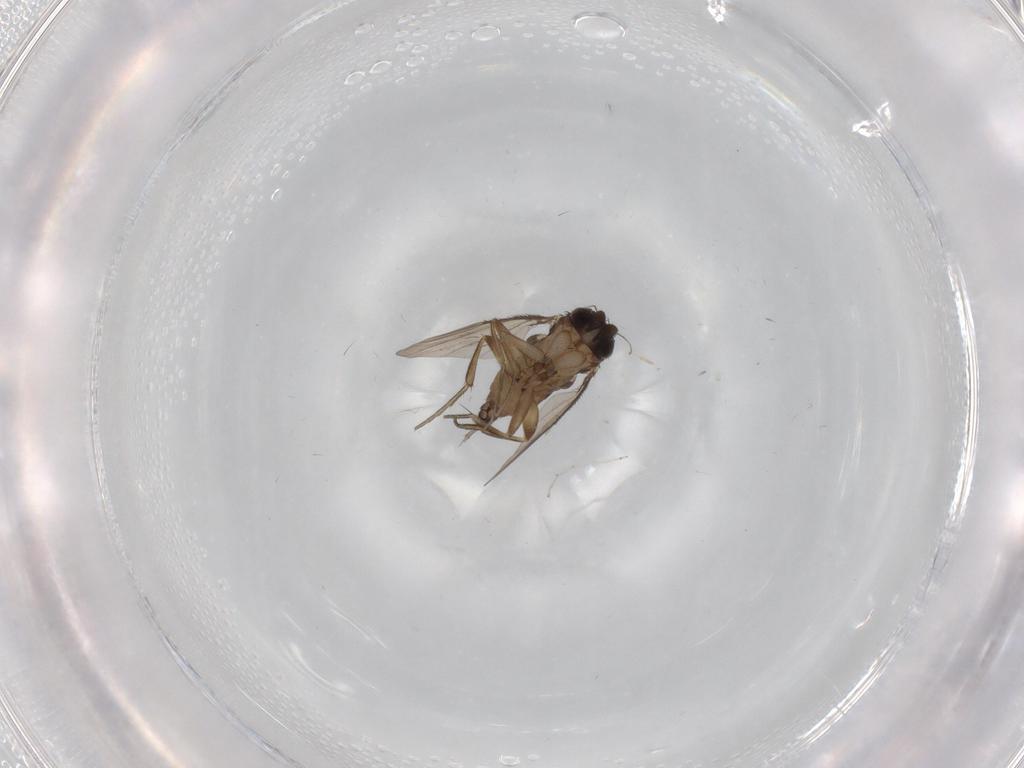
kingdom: Animalia
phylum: Arthropoda
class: Insecta
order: Diptera
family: Phoridae
